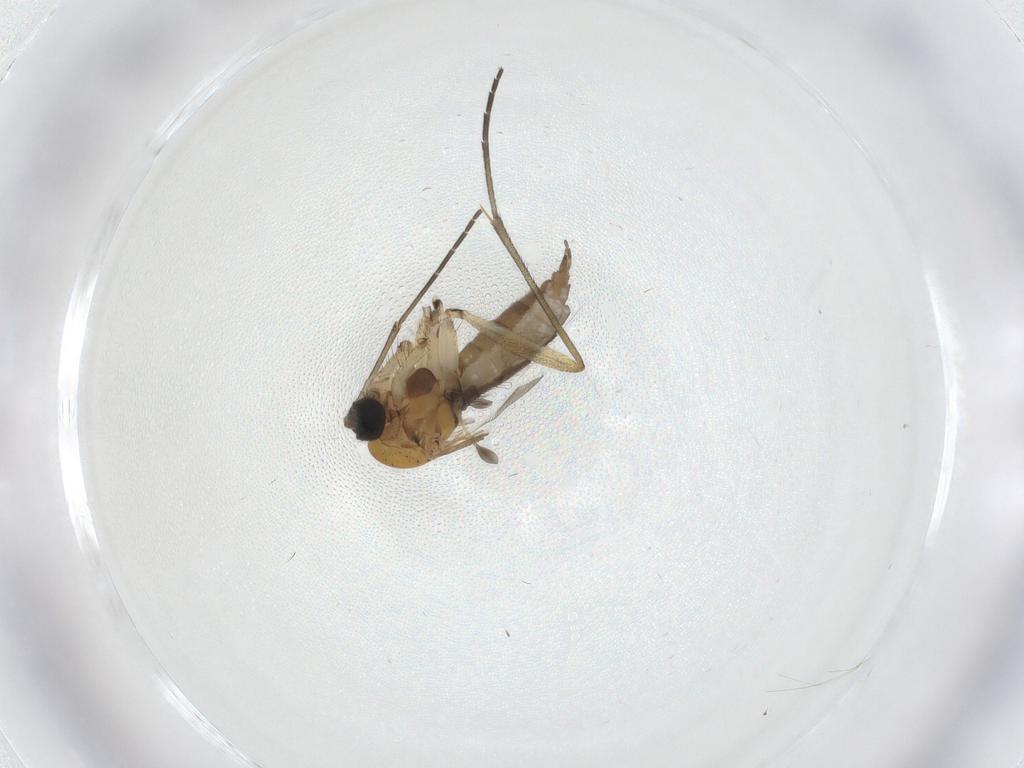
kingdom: Animalia
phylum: Arthropoda
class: Insecta
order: Diptera
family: Sciaridae
